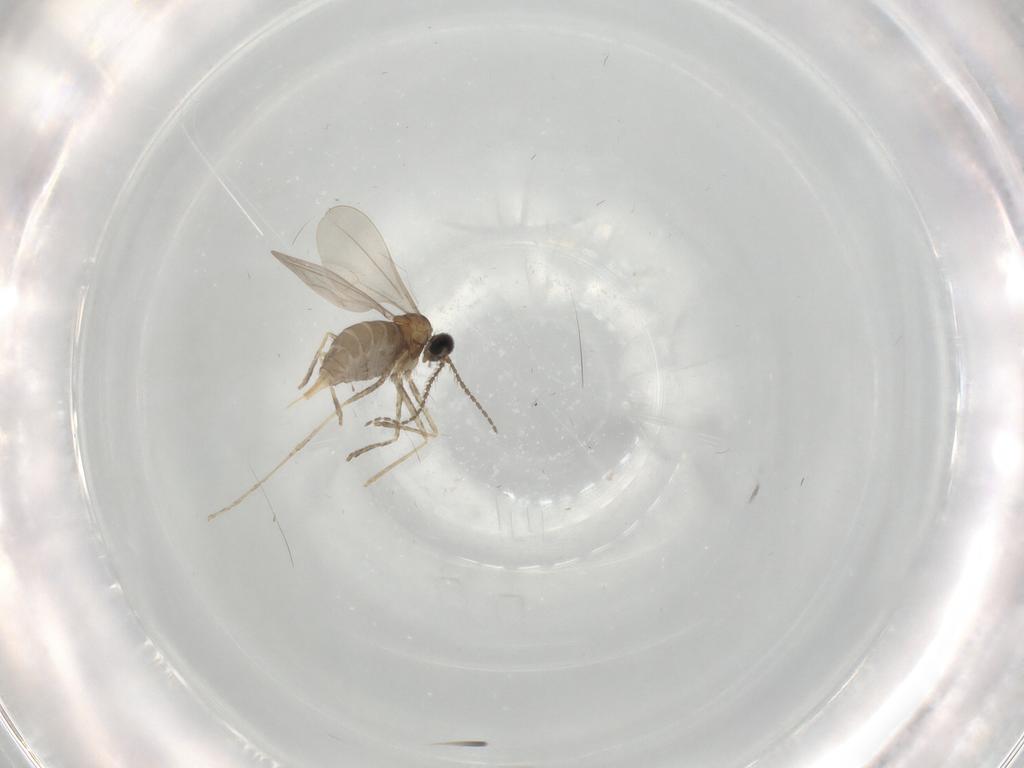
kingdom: Animalia
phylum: Arthropoda
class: Insecta
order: Diptera
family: Cecidomyiidae
